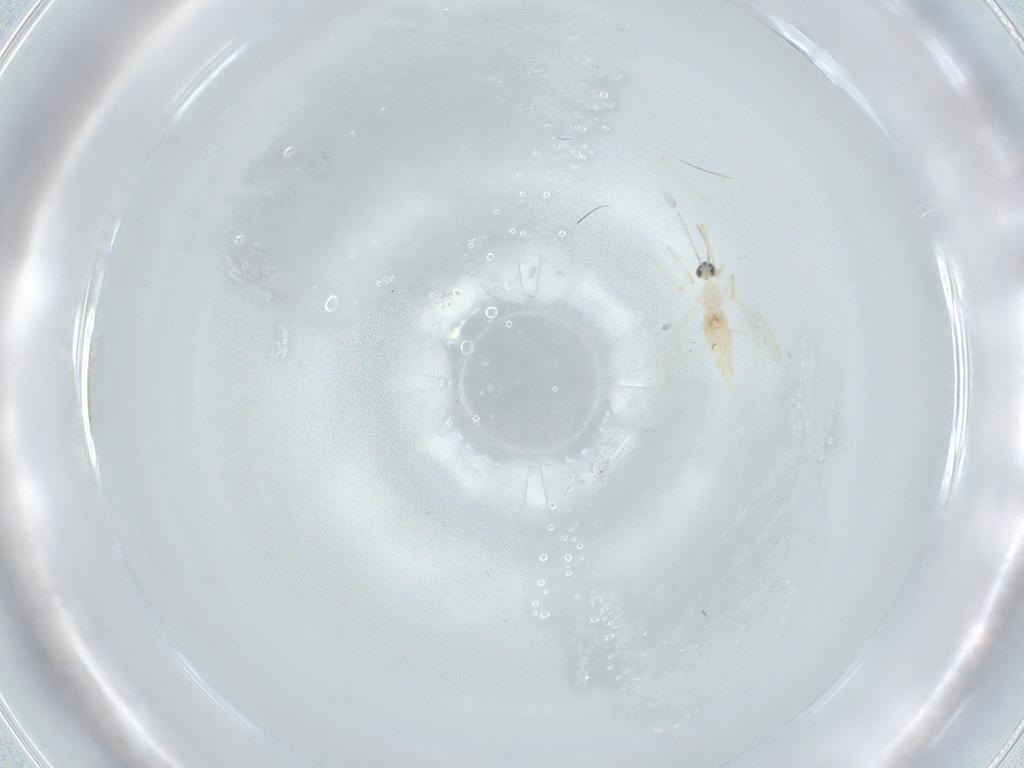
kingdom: Animalia
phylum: Arthropoda
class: Insecta
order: Diptera
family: Cecidomyiidae
